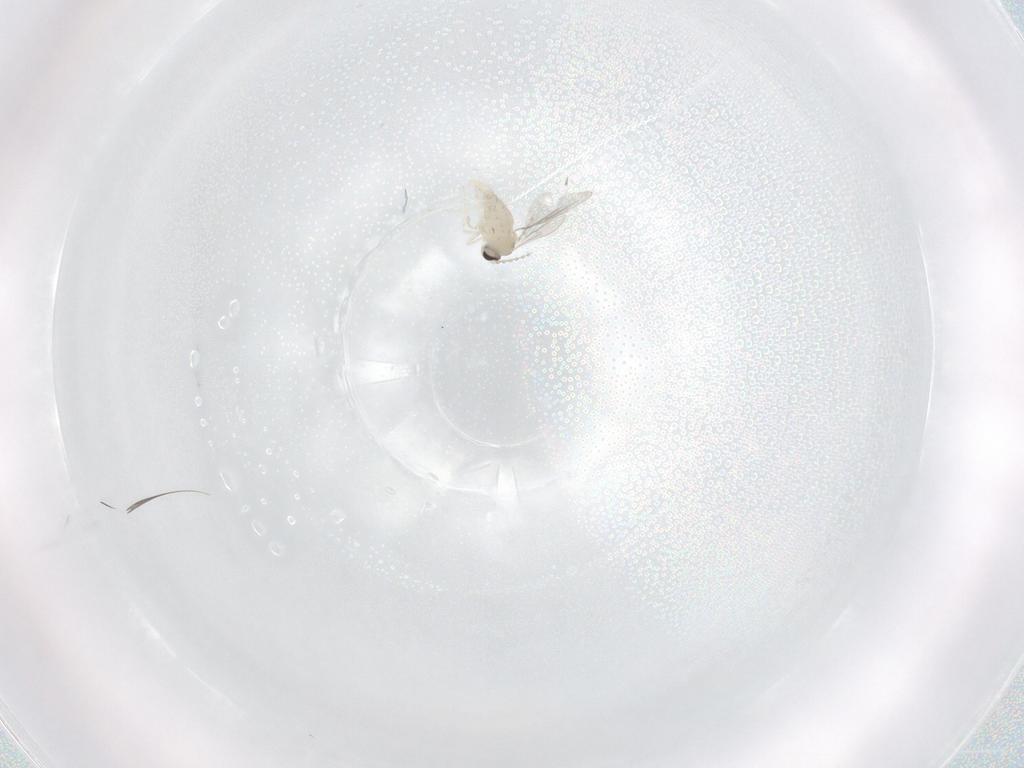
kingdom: Animalia
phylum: Arthropoda
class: Insecta
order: Diptera
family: Cecidomyiidae
